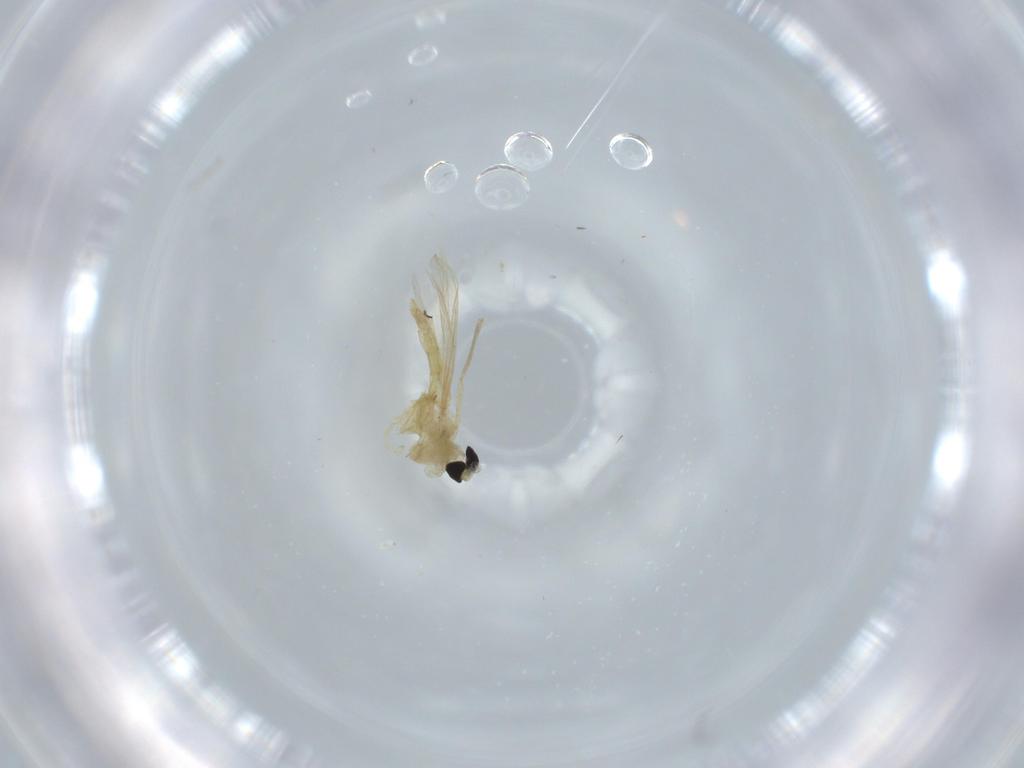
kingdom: Animalia
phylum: Arthropoda
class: Insecta
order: Diptera
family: Chironomidae
